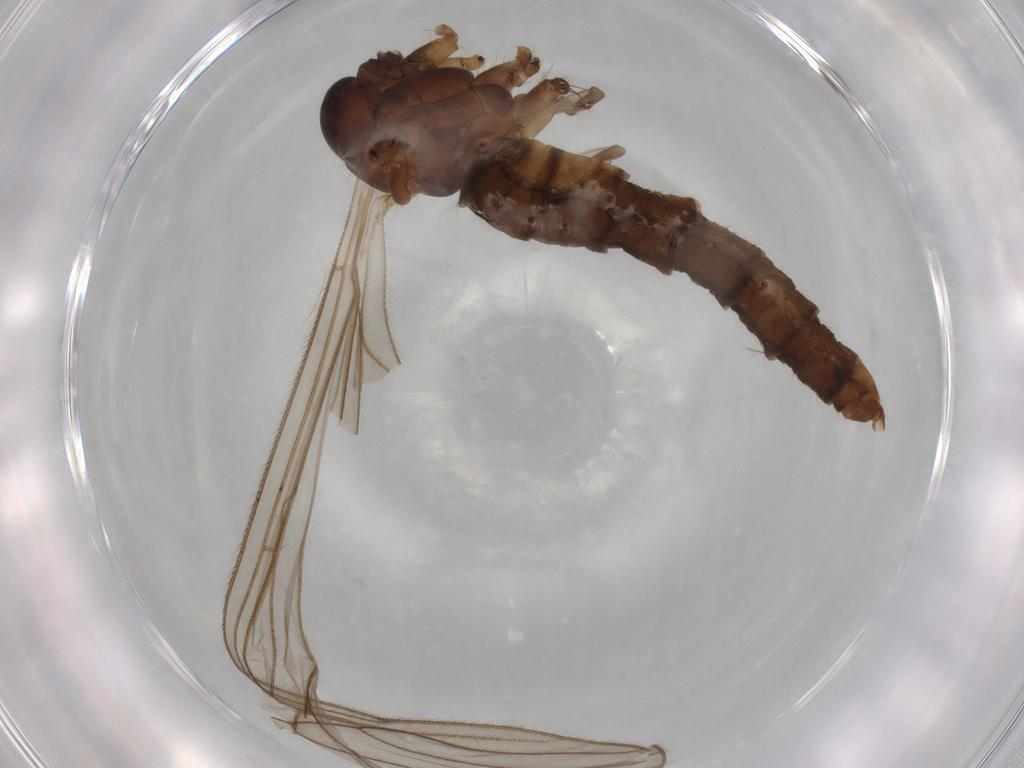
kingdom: Animalia
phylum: Arthropoda
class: Insecta
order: Diptera
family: Trichoceridae
